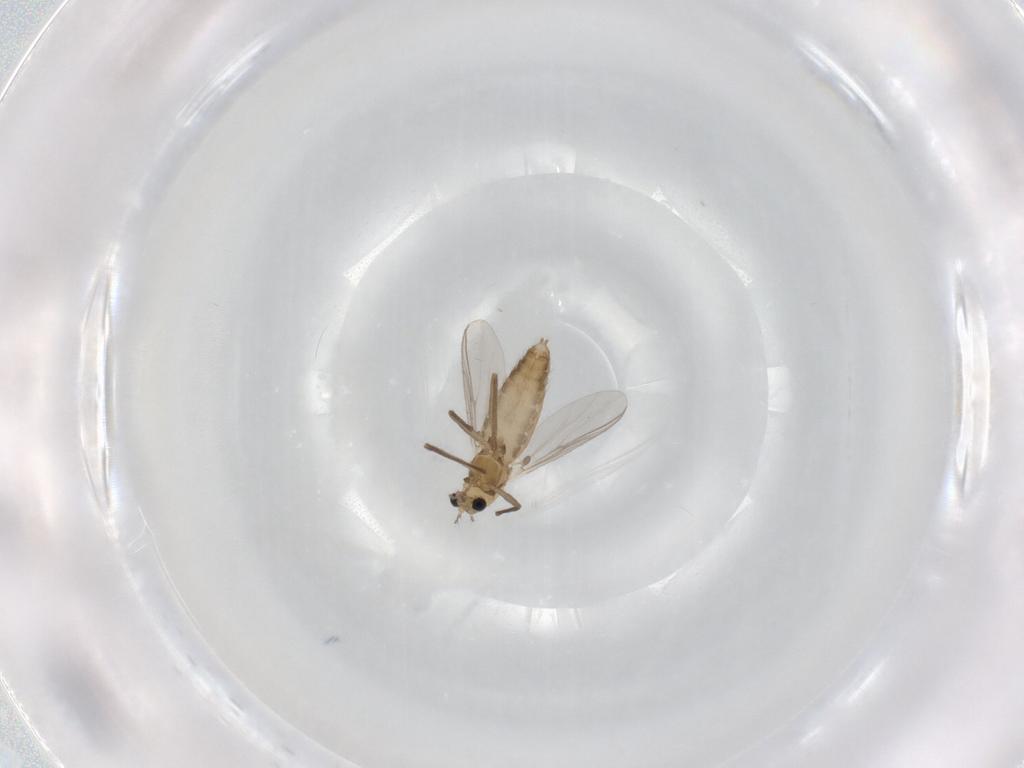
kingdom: Animalia
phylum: Arthropoda
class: Insecta
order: Diptera
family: Chironomidae
